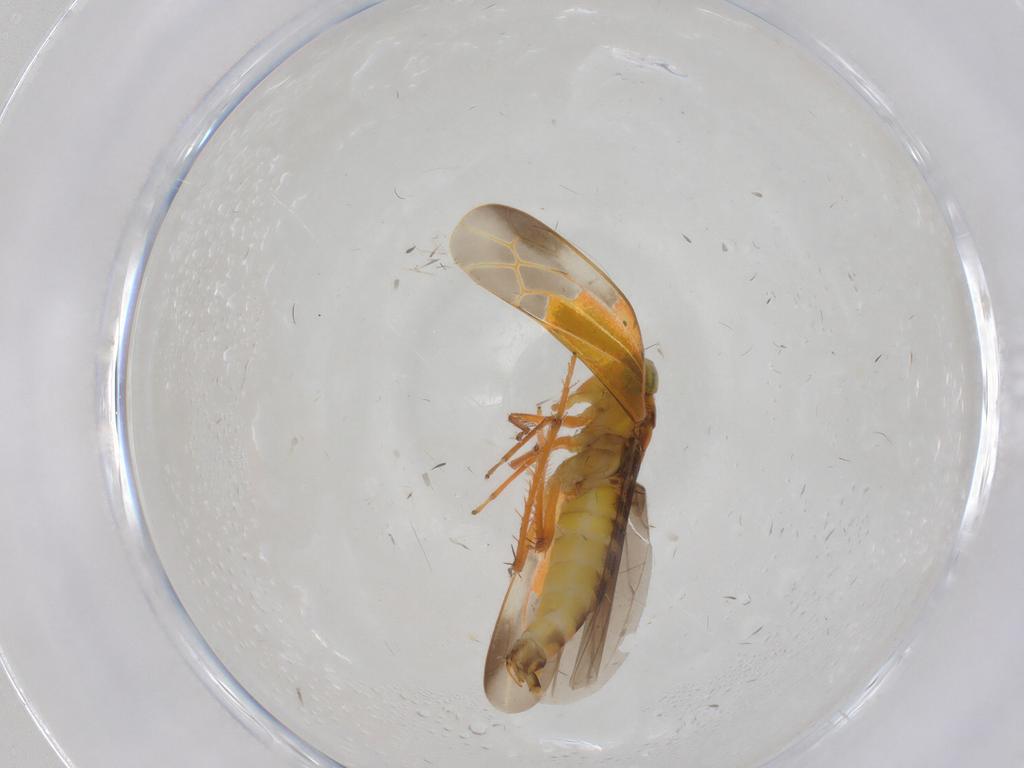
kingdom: Animalia
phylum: Arthropoda
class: Insecta
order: Hemiptera
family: Cicadellidae
